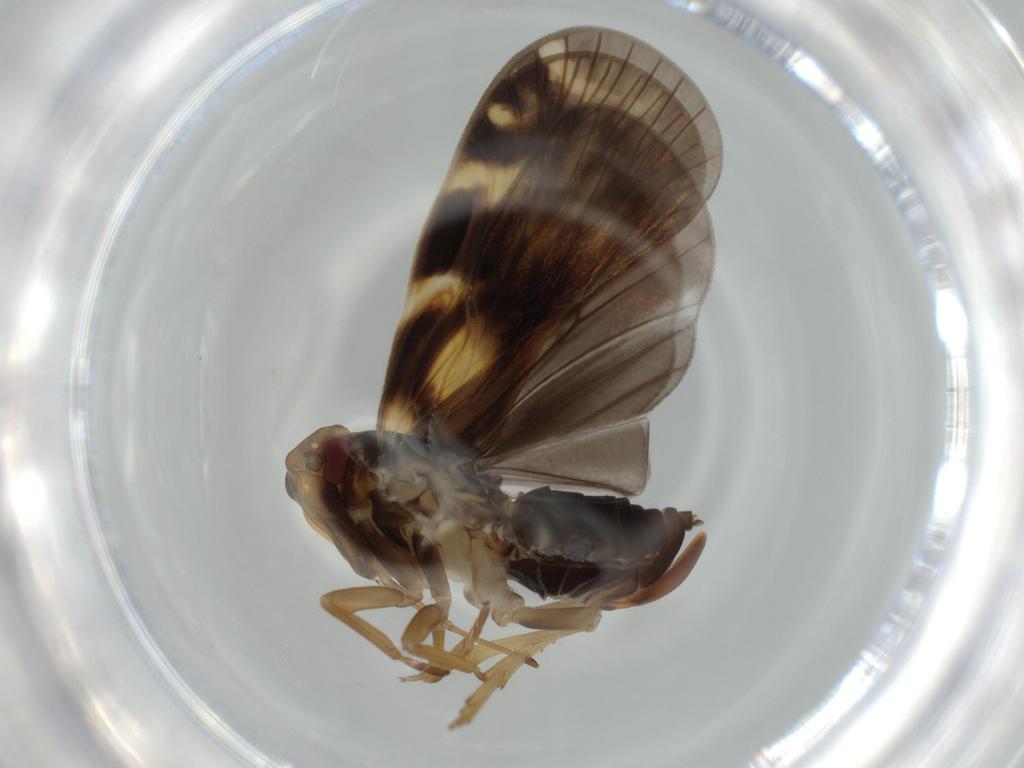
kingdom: Animalia
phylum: Arthropoda
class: Insecta
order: Hemiptera
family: Cixiidae
